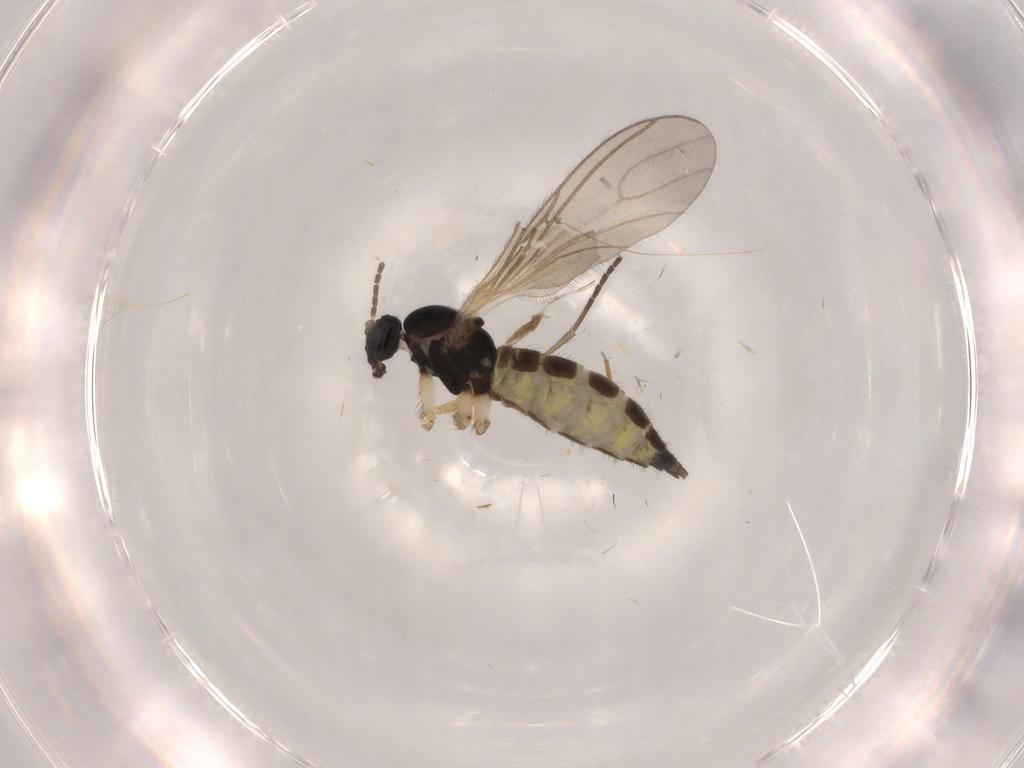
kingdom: Animalia
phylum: Arthropoda
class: Insecta
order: Diptera
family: Sciaridae
